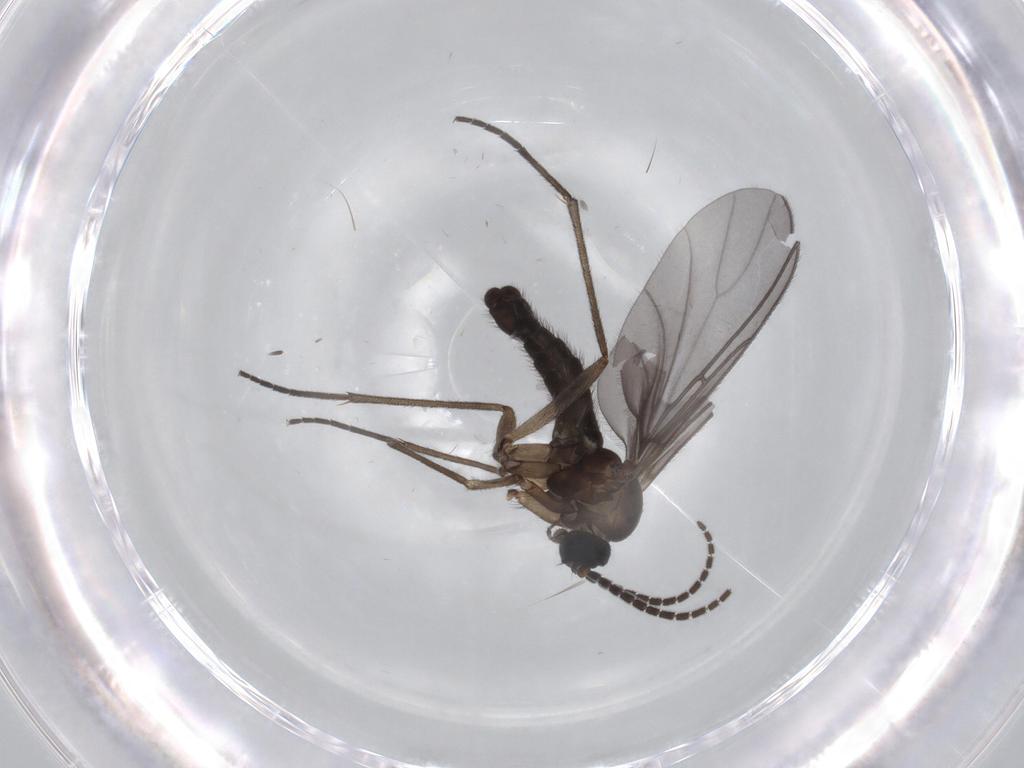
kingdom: Animalia
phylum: Arthropoda
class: Insecta
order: Diptera
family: Sciaridae
